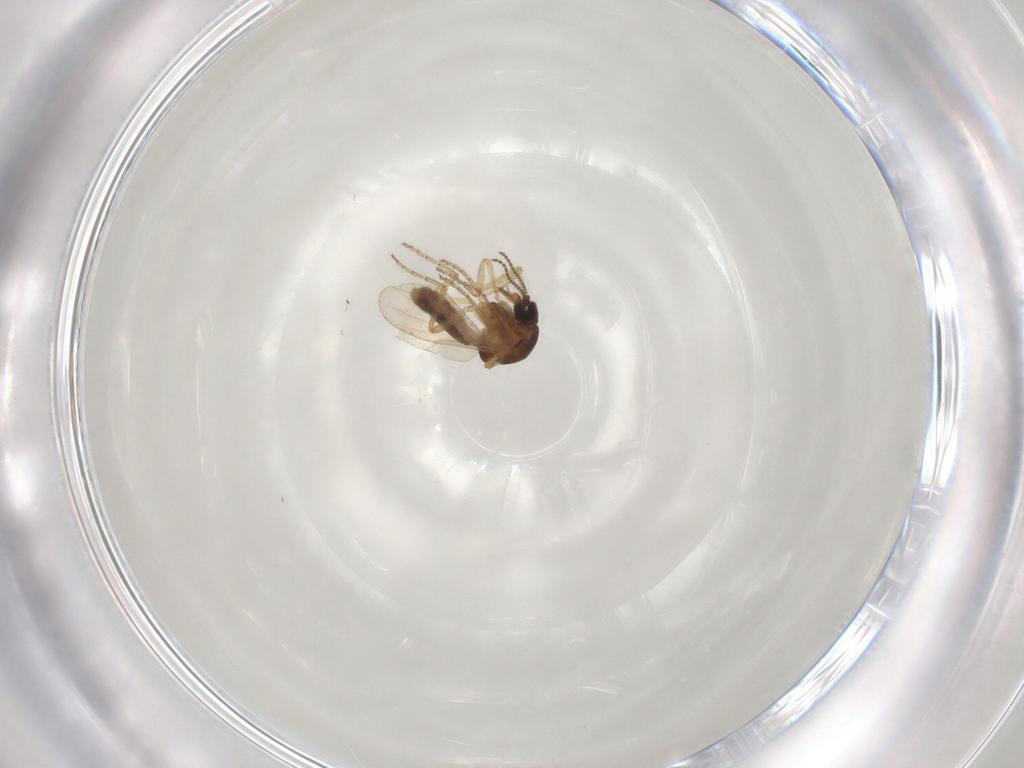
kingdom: Animalia
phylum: Arthropoda
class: Insecta
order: Diptera
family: Ceratopogonidae
